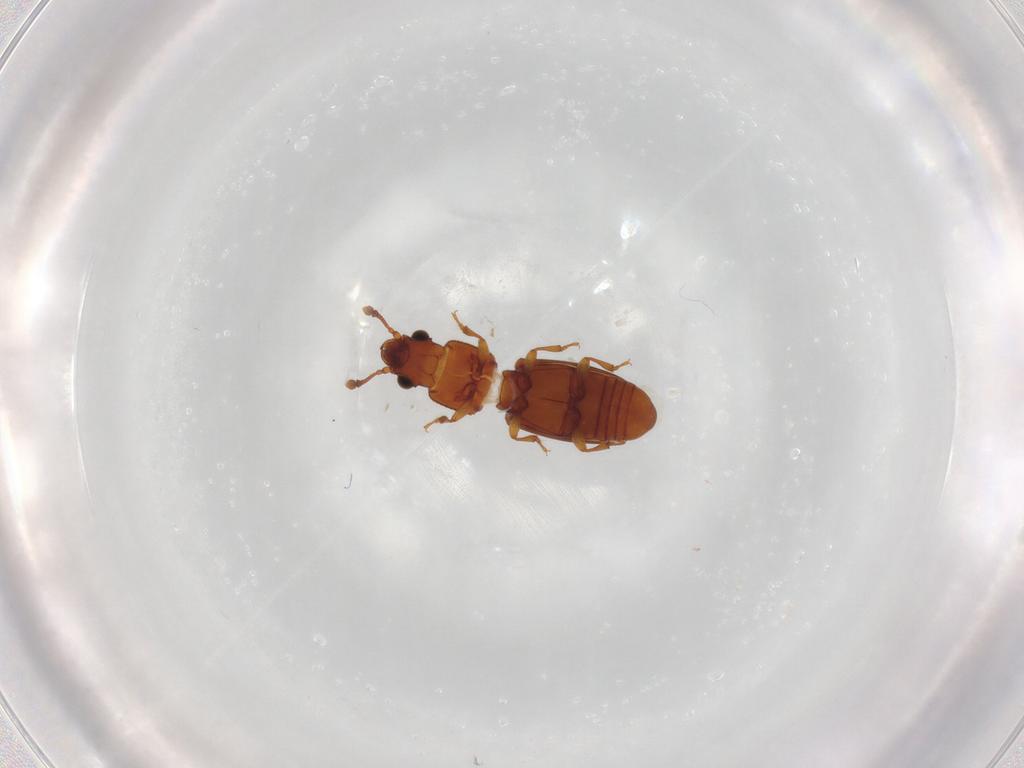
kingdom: Animalia
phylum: Arthropoda
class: Insecta
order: Coleoptera
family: Monotomidae
